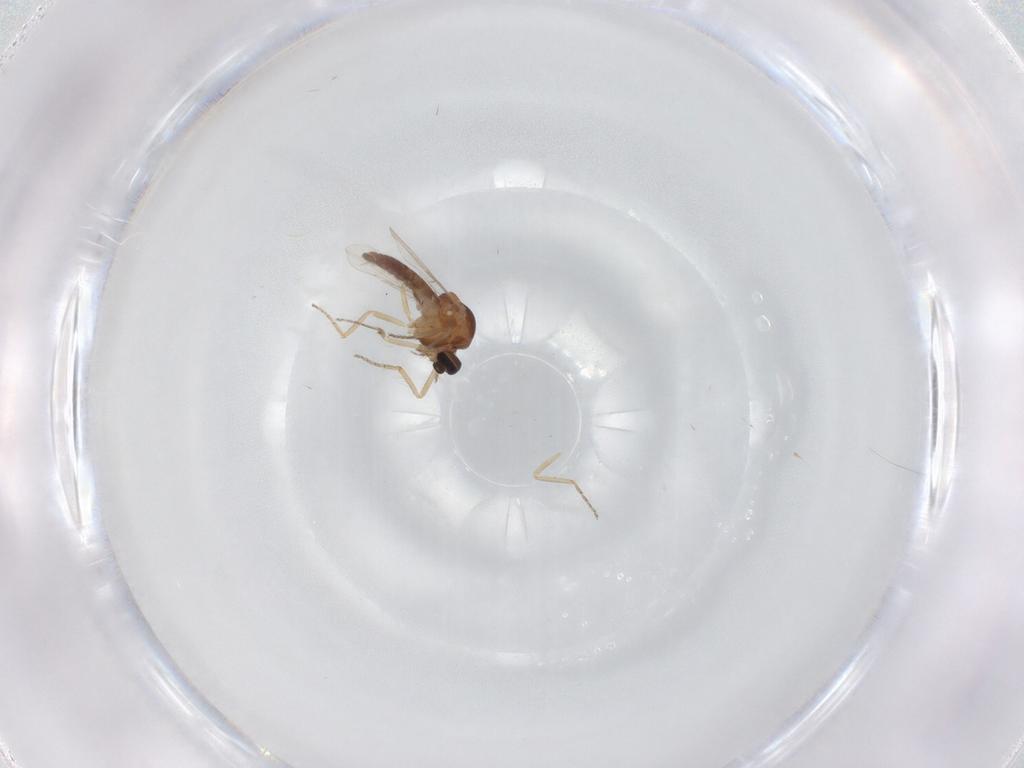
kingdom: Animalia
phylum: Arthropoda
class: Insecta
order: Diptera
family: Ceratopogonidae
